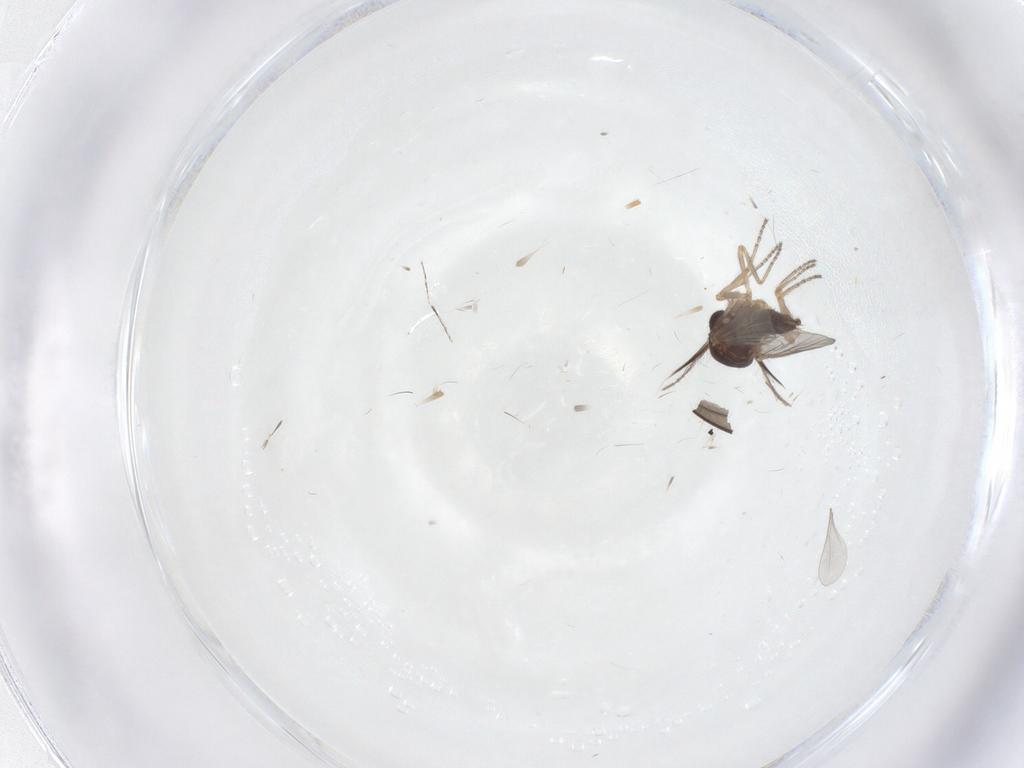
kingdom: Animalia
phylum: Arthropoda
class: Insecta
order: Diptera
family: Ceratopogonidae
